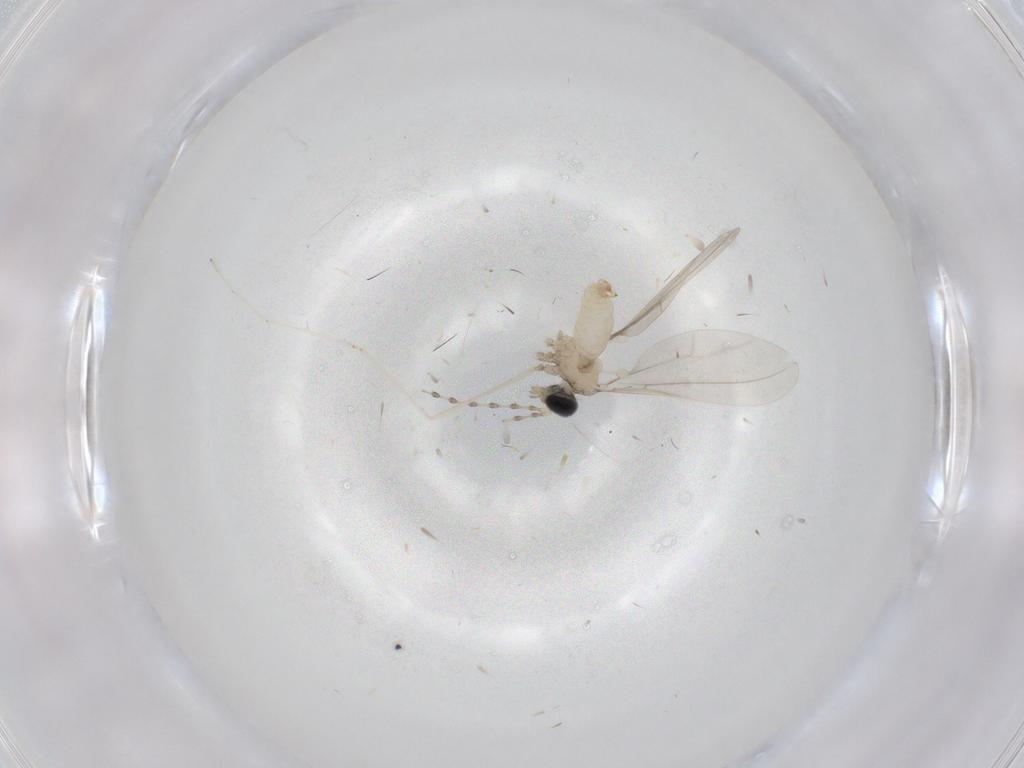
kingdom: Animalia
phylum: Arthropoda
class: Insecta
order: Diptera
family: Cecidomyiidae
